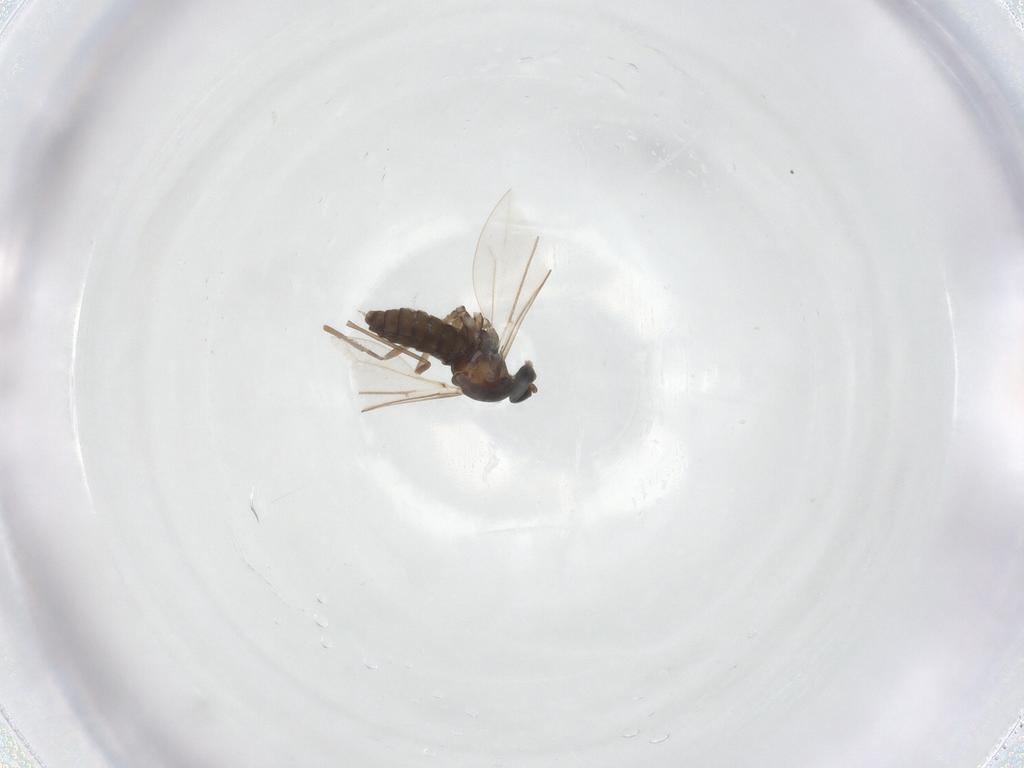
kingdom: Animalia
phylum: Arthropoda
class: Insecta
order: Diptera
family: Cecidomyiidae
